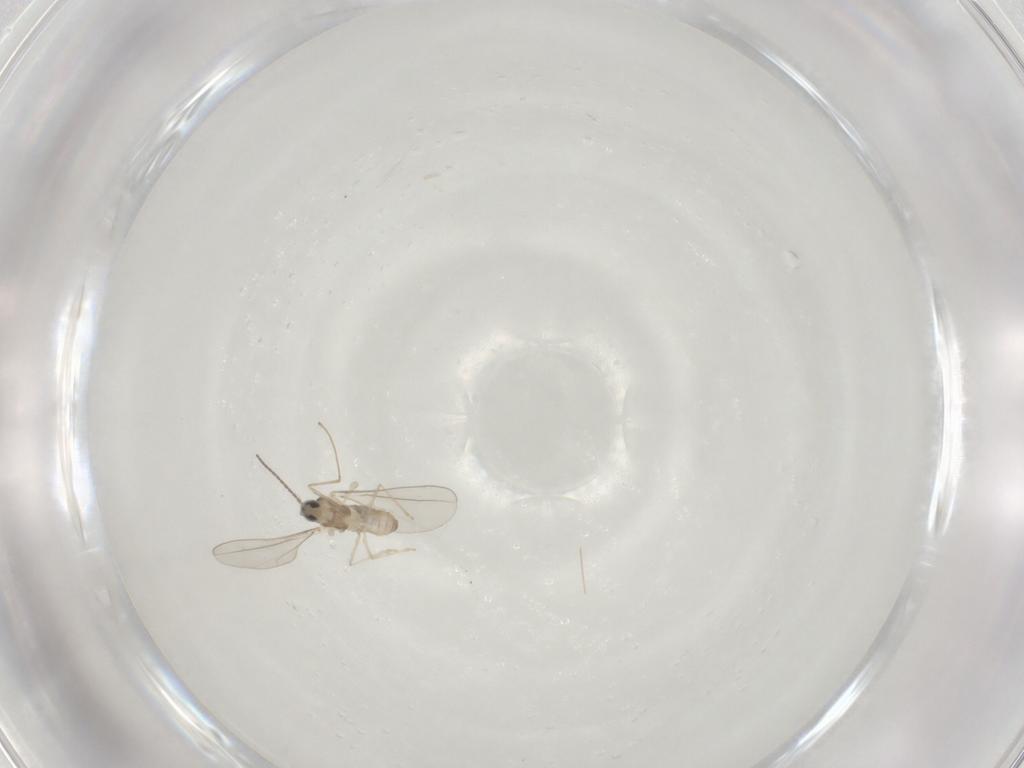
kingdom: Animalia
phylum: Arthropoda
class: Insecta
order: Diptera
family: Cecidomyiidae
